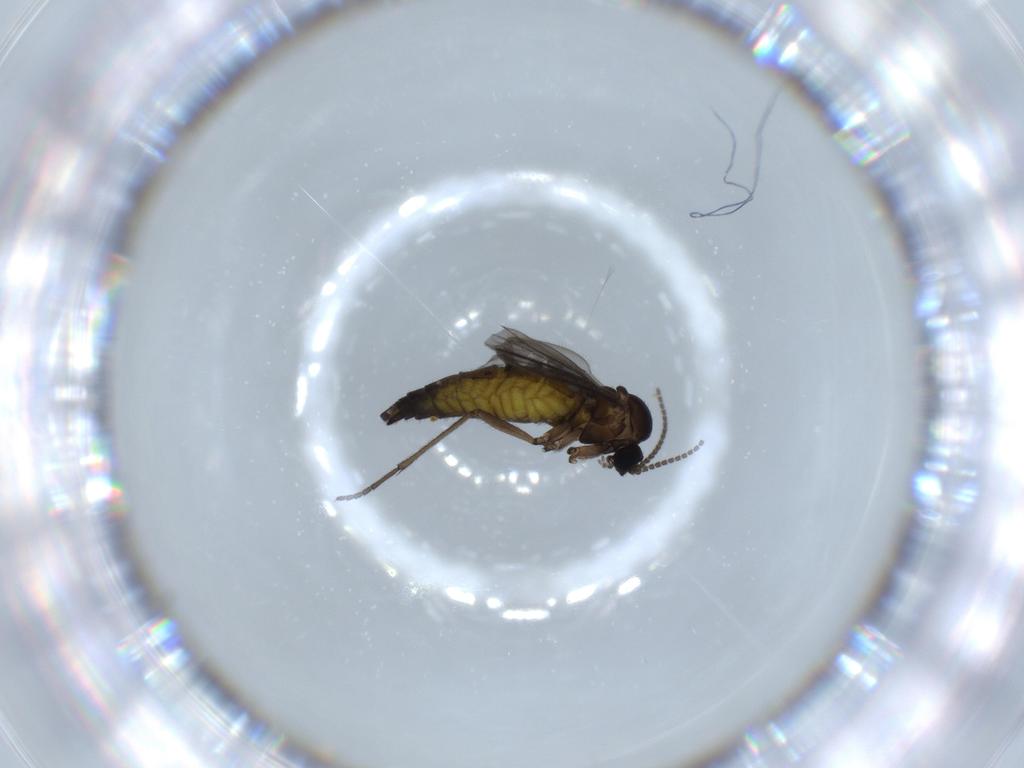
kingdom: Animalia
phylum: Arthropoda
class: Insecta
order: Diptera
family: Sciaridae
